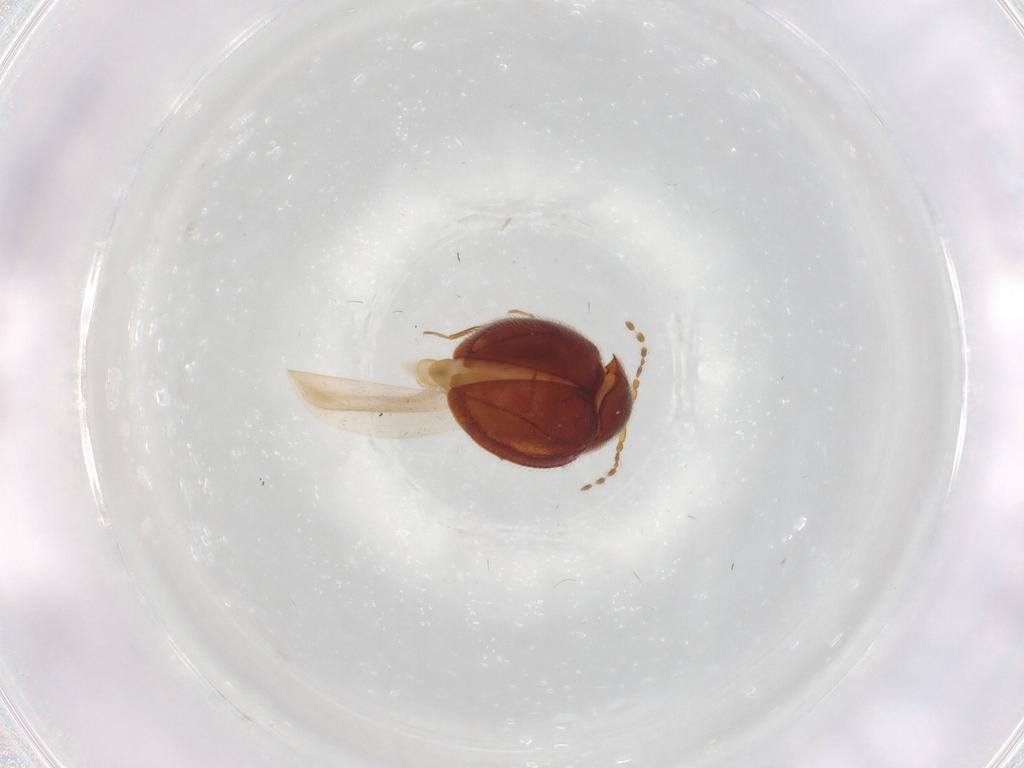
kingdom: Animalia
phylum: Arthropoda
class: Insecta
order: Coleoptera
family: Anamorphidae
